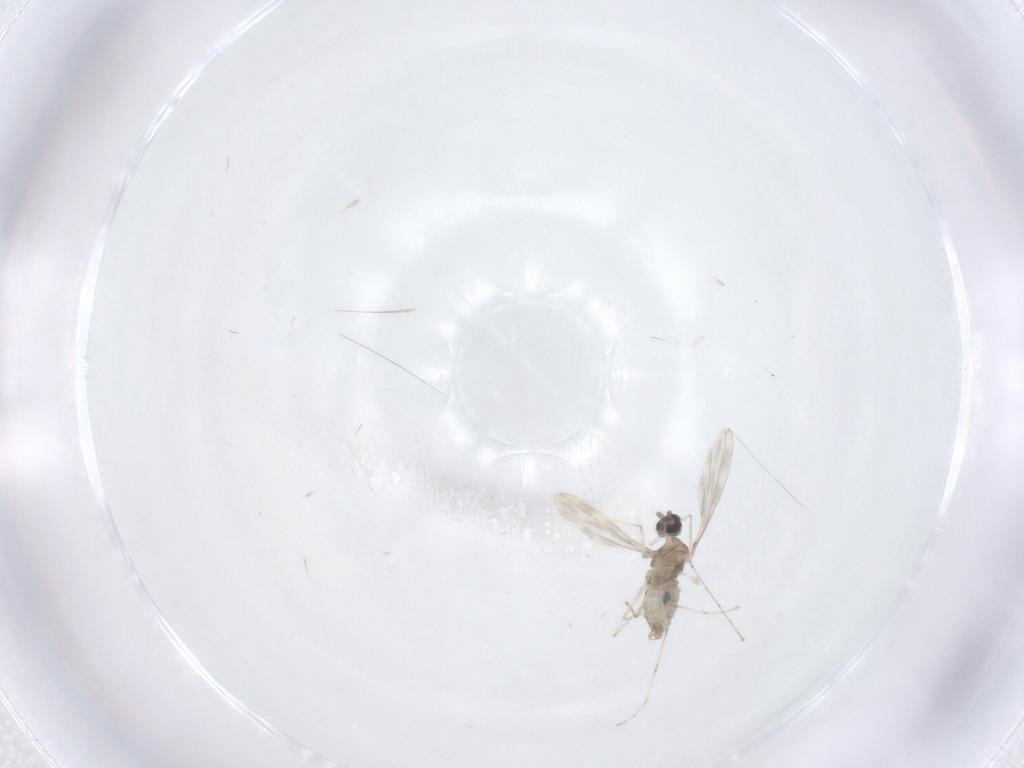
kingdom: Animalia
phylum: Arthropoda
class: Insecta
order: Diptera
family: Cecidomyiidae
